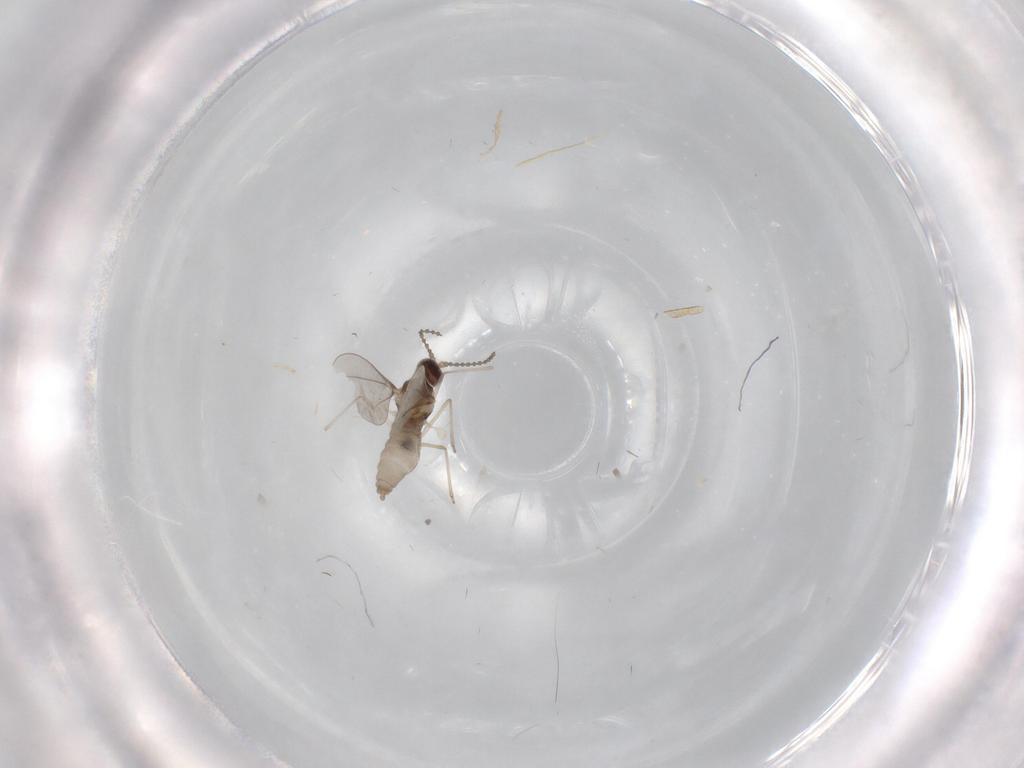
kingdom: Animalia
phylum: Arthropoda
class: Insecta
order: Diptera
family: Cecidomyiidae
